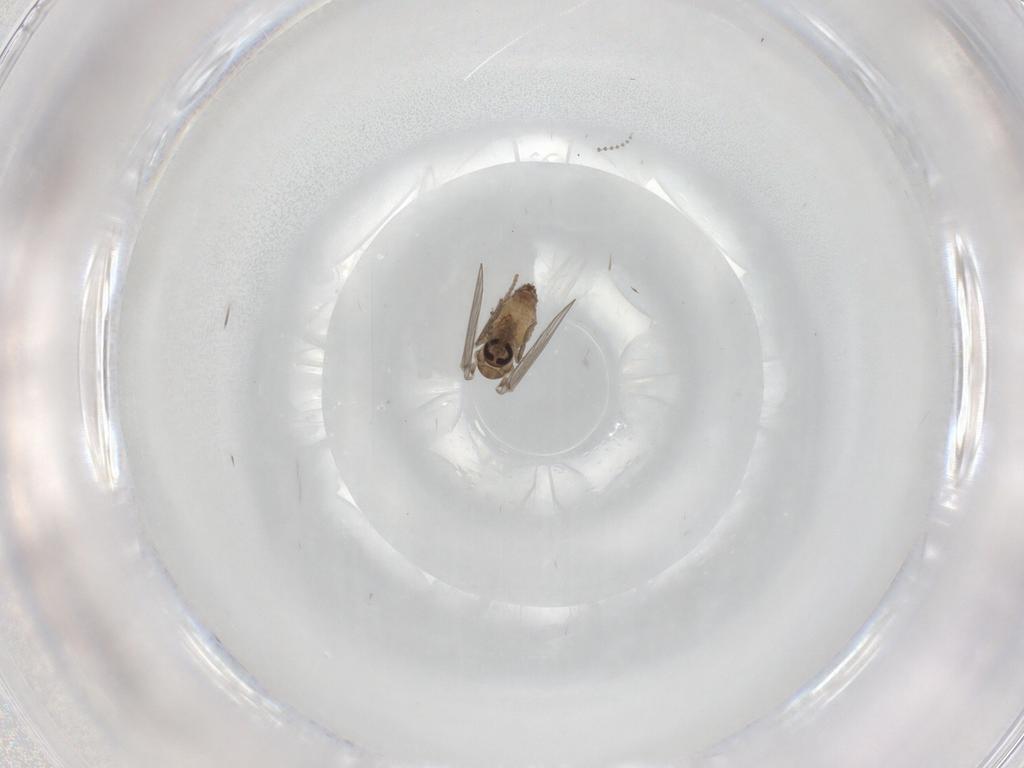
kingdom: Animalia
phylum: Arthropoda
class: Insecta
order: Diptera
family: Psychodidae
